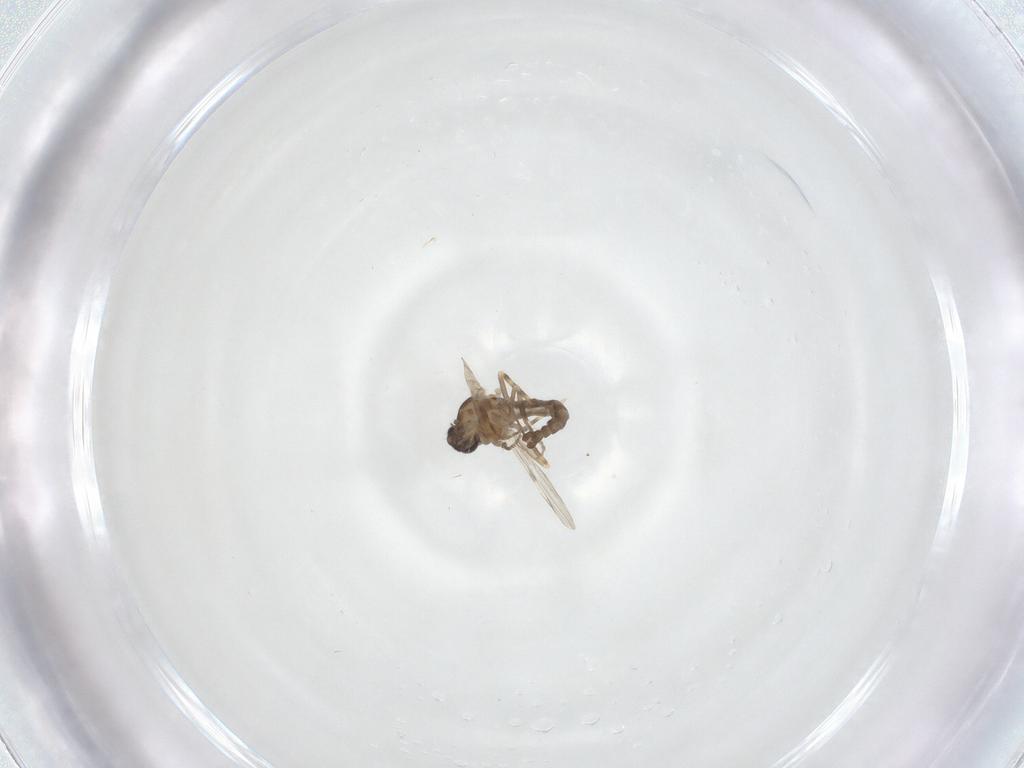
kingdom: Animalia
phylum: Arthropoda
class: Insecta
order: Diptera
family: Ceratopogonidae
